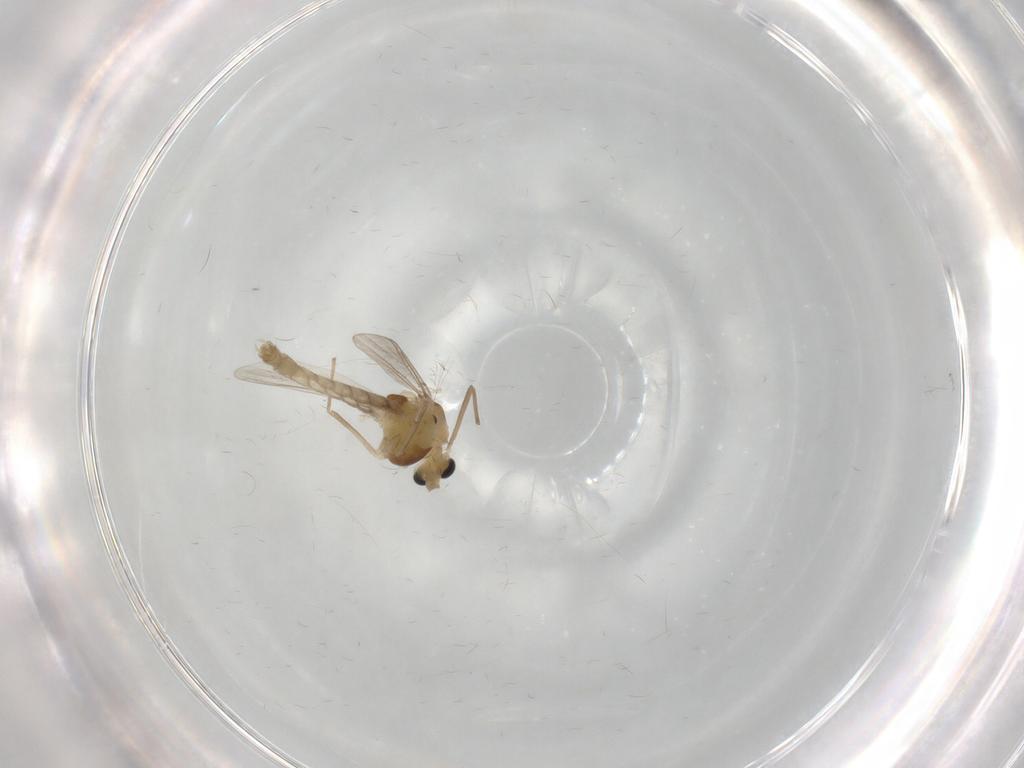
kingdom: Animalia
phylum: Arthropoda
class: Insecta
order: Diptera
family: Chironomidae
